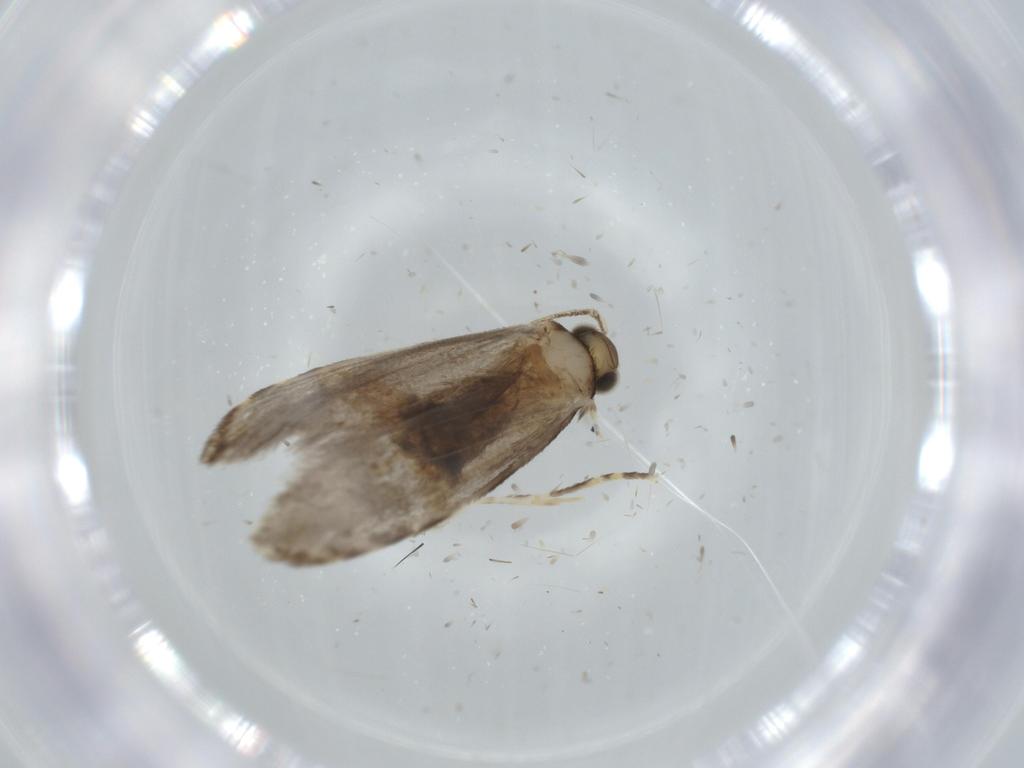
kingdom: Animalia
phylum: Arthropoda
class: Insecta
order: Lepidoptera
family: Tineidae
